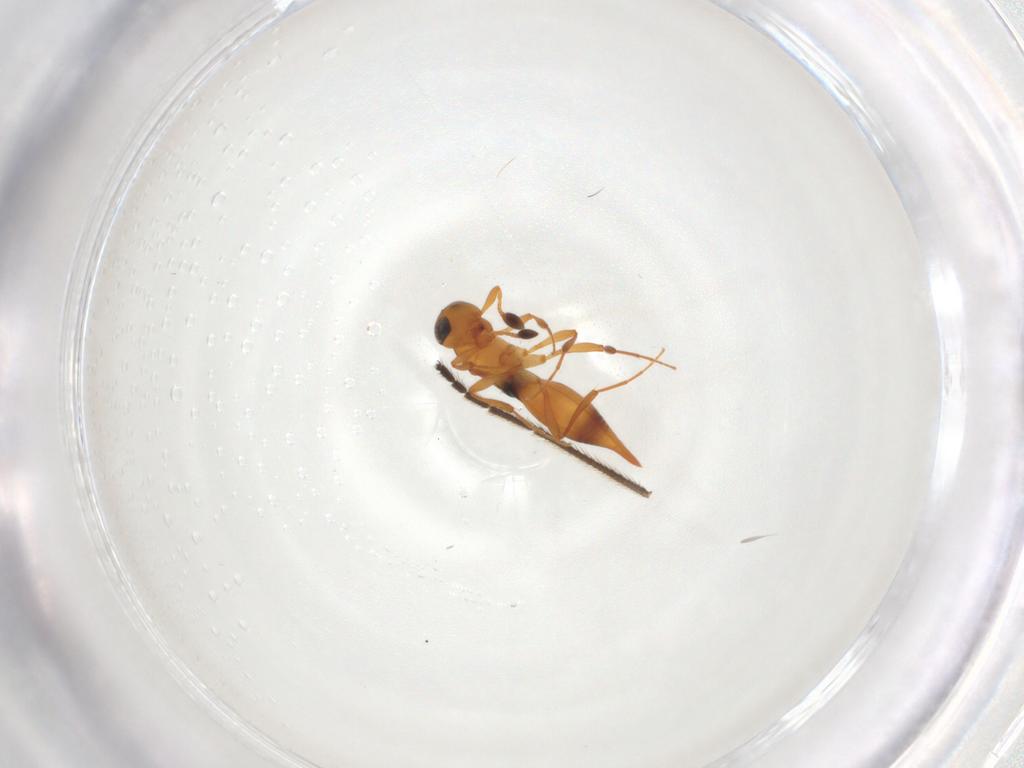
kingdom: Animalia
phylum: Arthropoda
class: Insecta
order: Hymenoptera
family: Platygastridae
